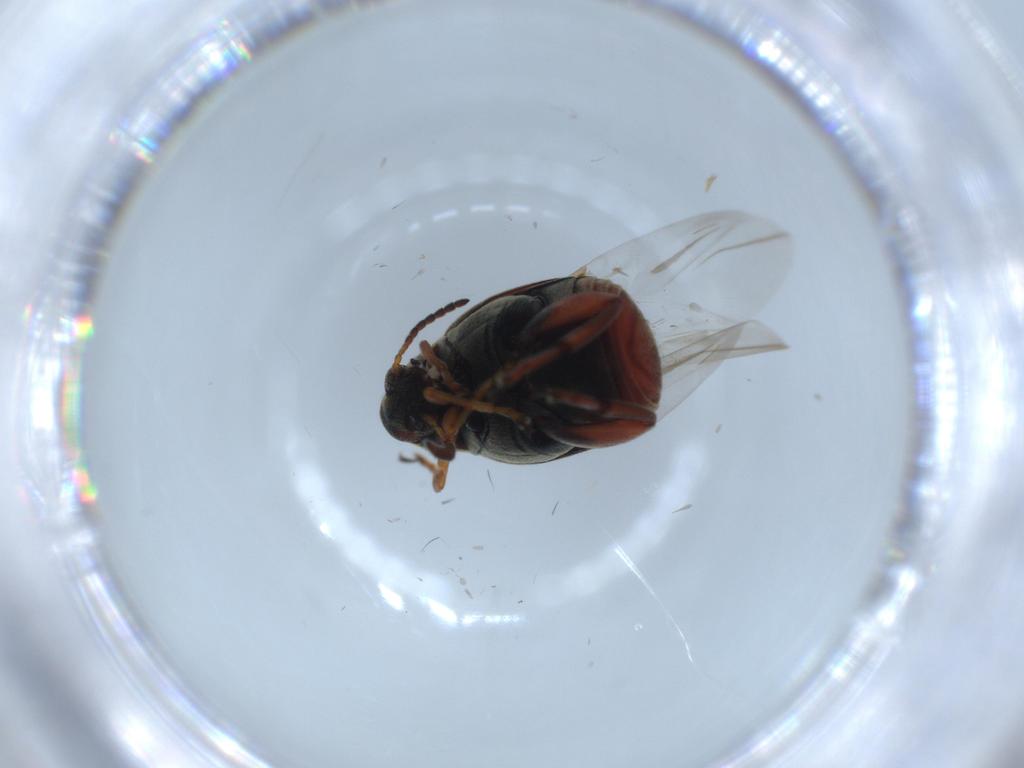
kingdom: Animalia
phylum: Arthropoda
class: Insecta
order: Coleoptera
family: Chrysomelidae
